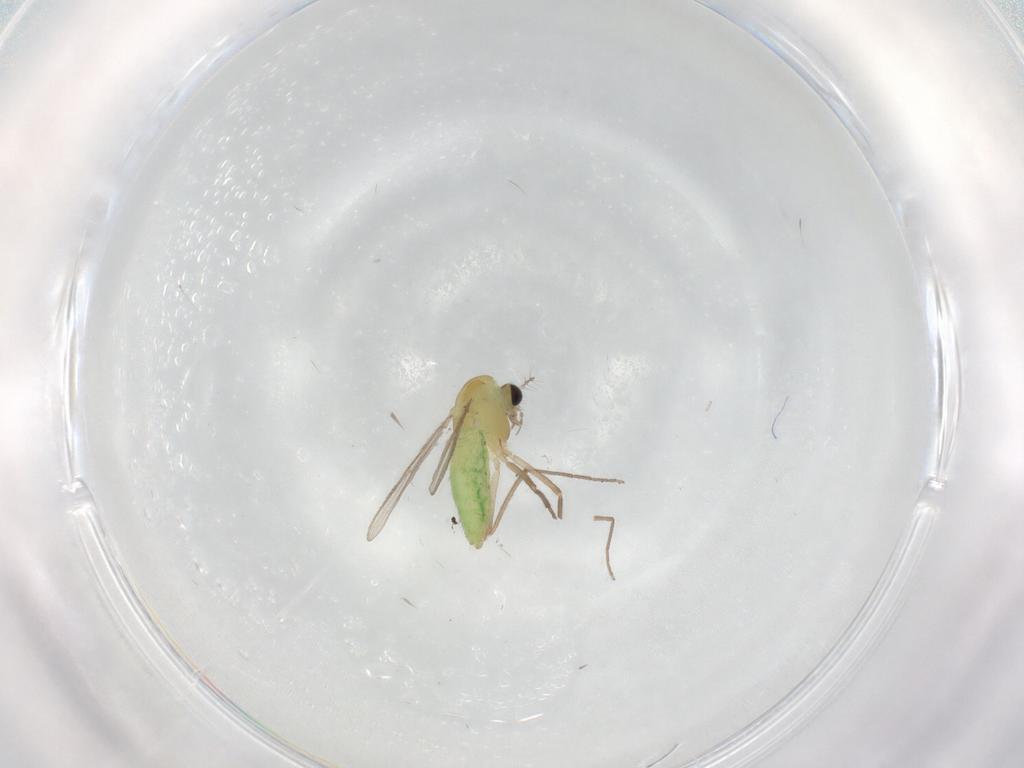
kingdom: Animalia
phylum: Arthropoda
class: Insecta
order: Diptera
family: Chironomidae
